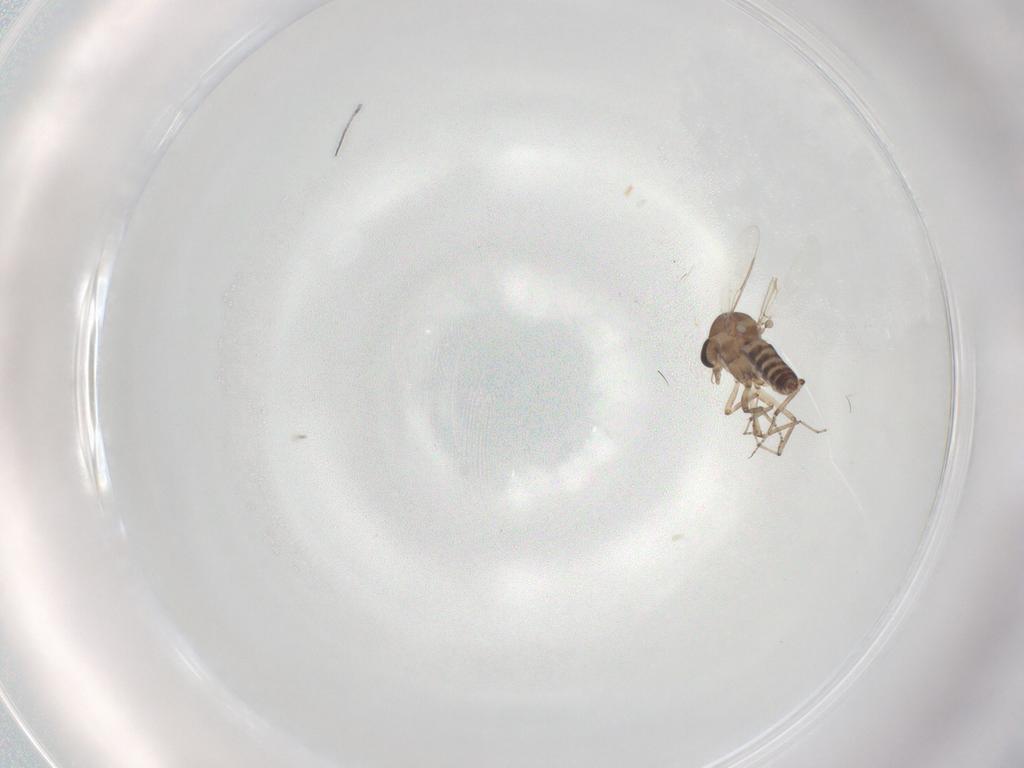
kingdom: Animalia
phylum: Arthropoda
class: Insecta
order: Diptera
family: Ceratopogonidae
